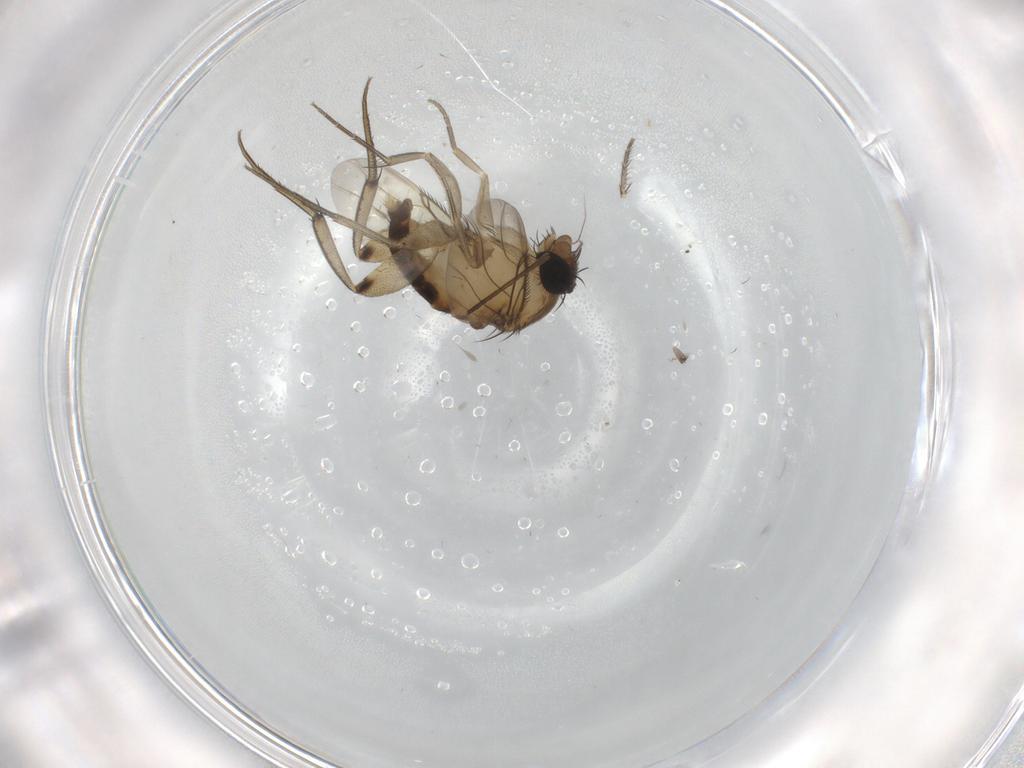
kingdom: Animalia
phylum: Arthropoda
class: Insecta
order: Diptera
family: Phoridae
